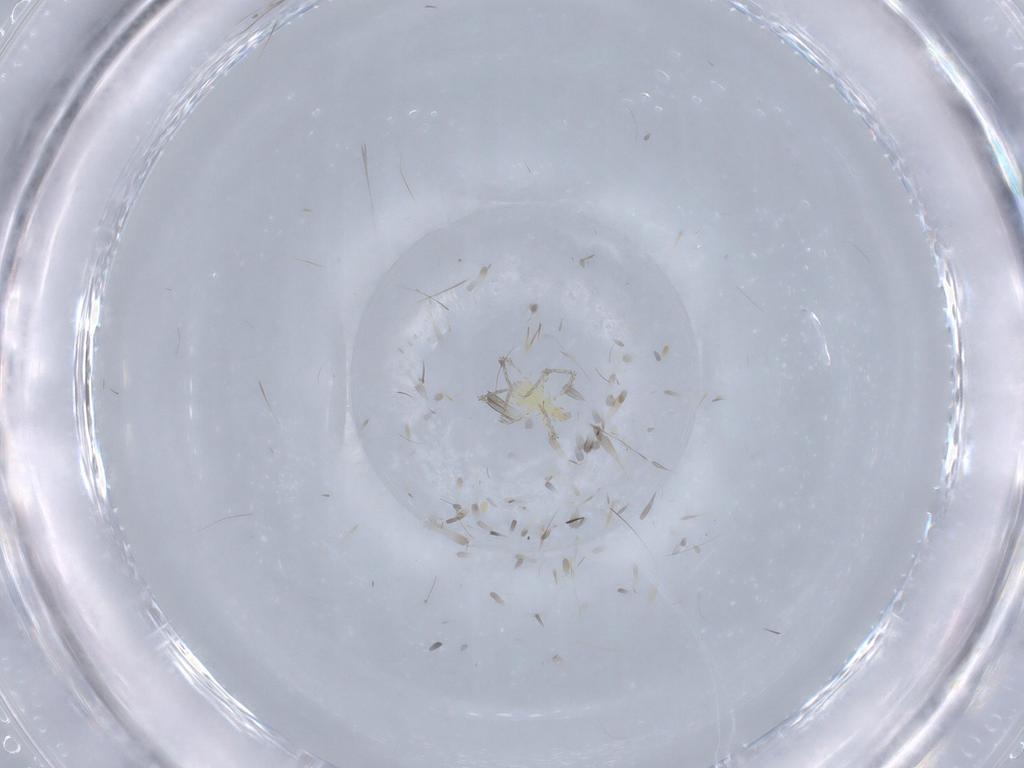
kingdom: Animalia
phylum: Arthropoda
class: Arachnida
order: Trombidiformes
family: Erythraeidae
